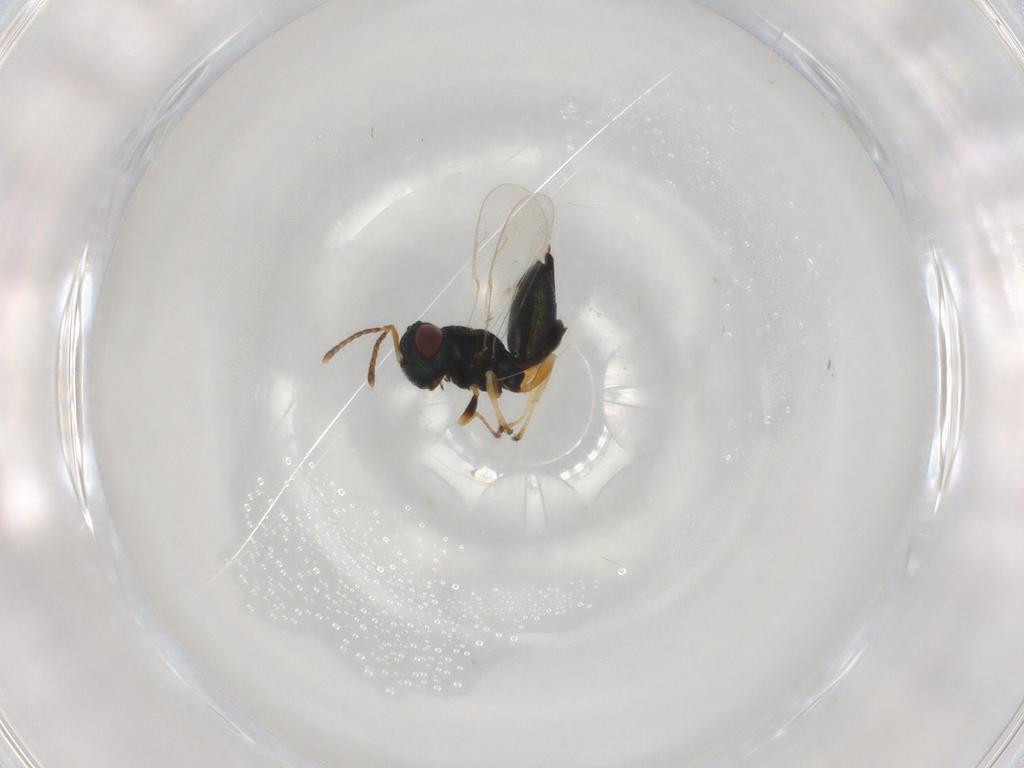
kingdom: Animalia
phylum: Arthropoda
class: Insecta
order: Hymenoptera
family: Pteromalidae
